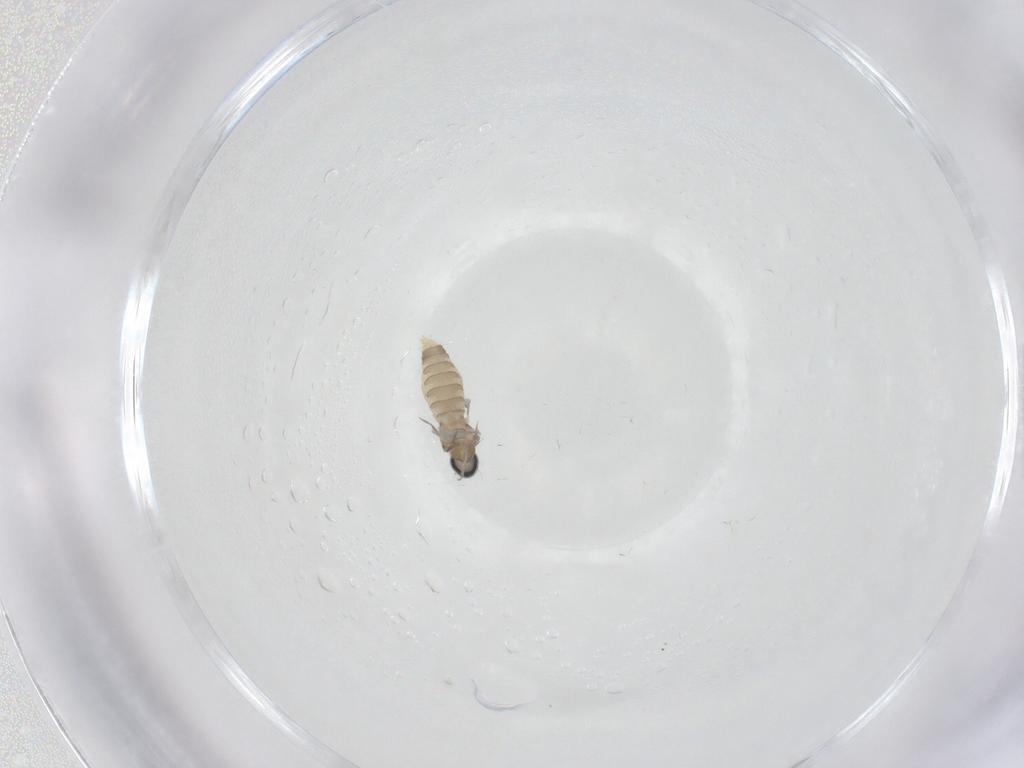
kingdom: Animalia
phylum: Arthropoda
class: Insecta
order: Diptera
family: Cecidomyiidae
